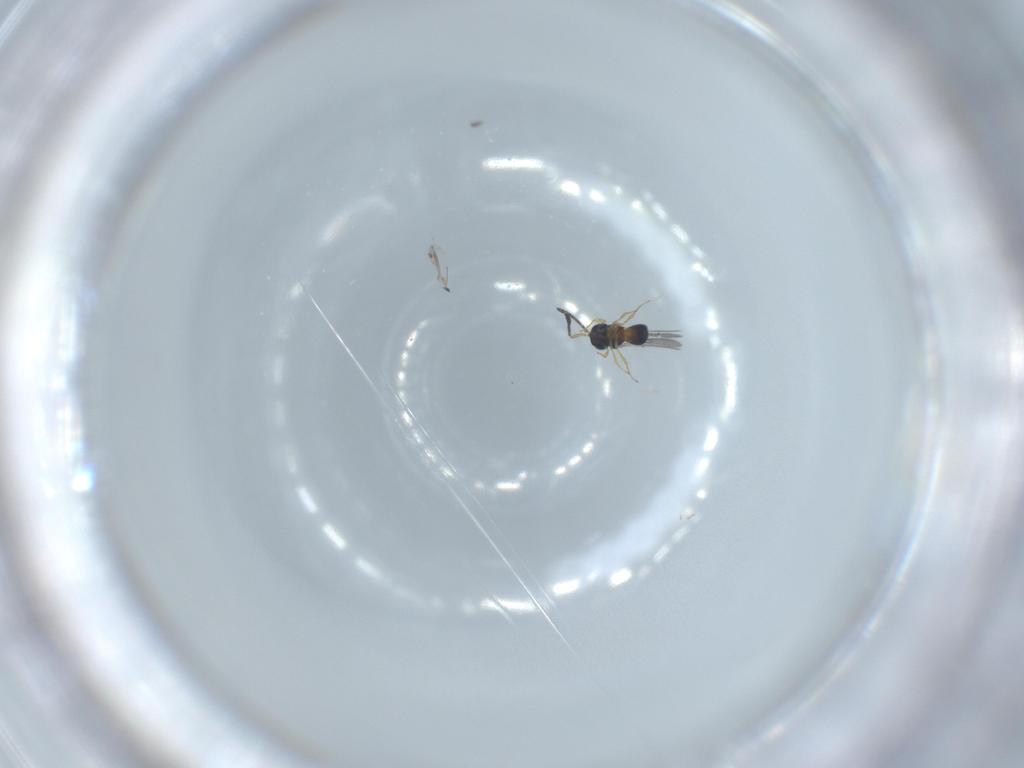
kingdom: Animalia
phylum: Arthropoda
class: Insecta
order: Hymenoptera
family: Scelionidae
